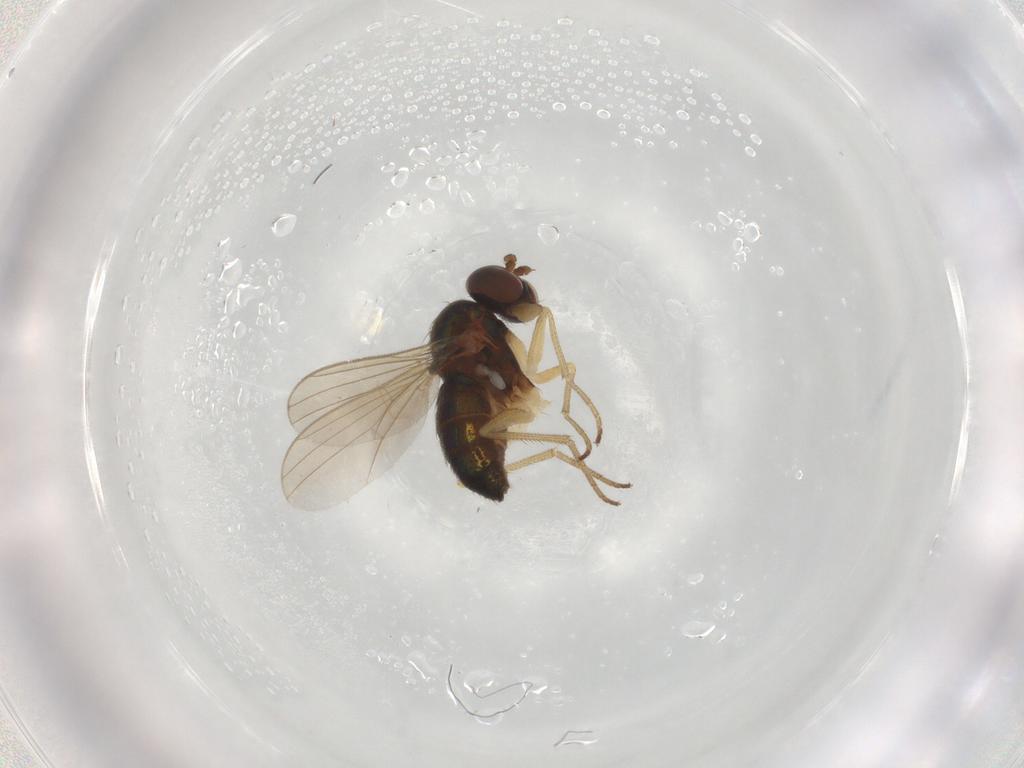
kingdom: Animalia
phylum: Arthropoda
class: Insecta
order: Diptera
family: Dolichopodidae
